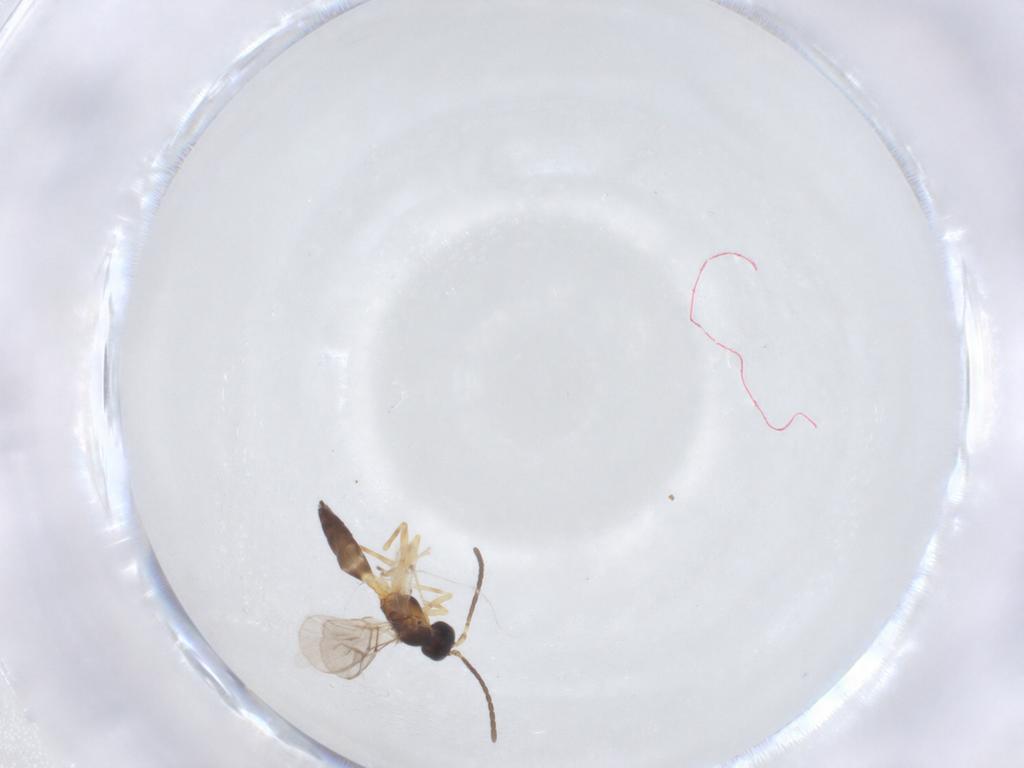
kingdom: Animalia
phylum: Arthropoda
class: Insecta
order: Hymenoptera
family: Braconidae
